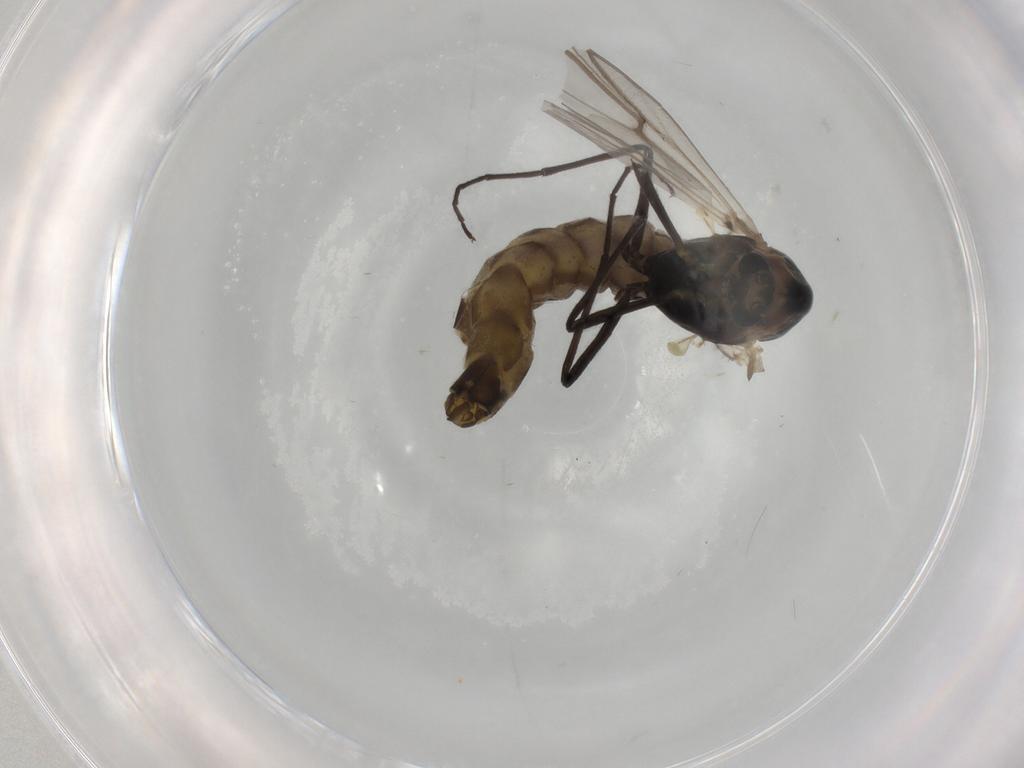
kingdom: Animalia
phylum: Arthropoda
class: Insecta
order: Diptera
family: Chironomidae
